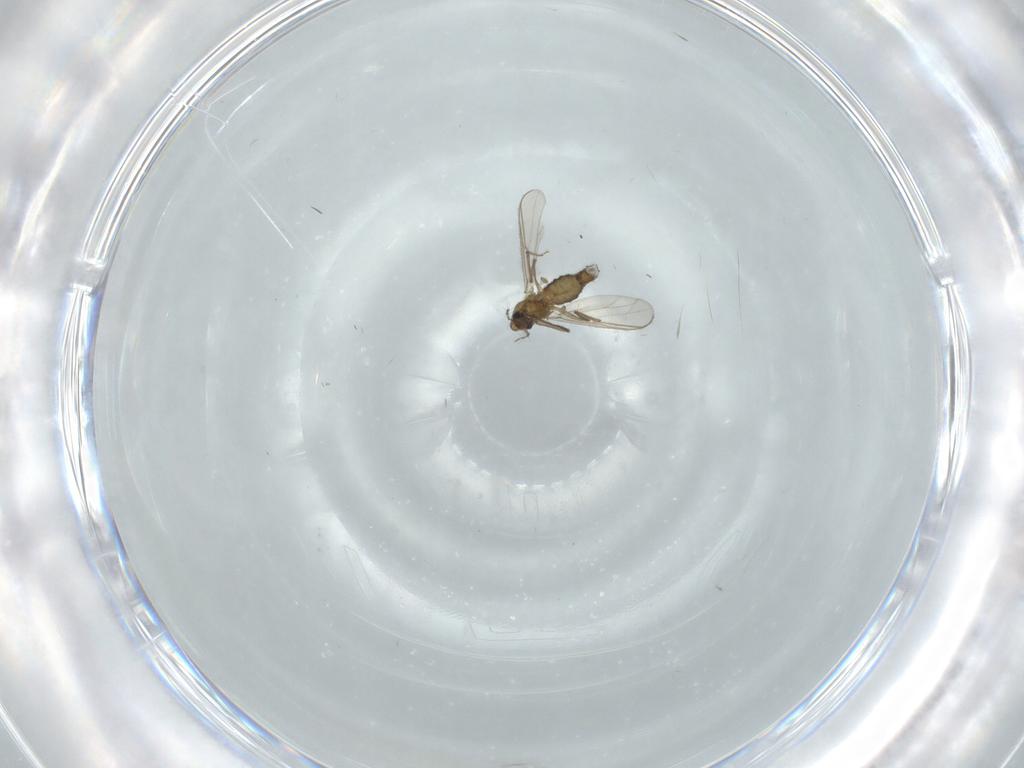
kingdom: Animalia
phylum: Arthropoda
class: Insecta
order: Diptera
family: Chironomidae
